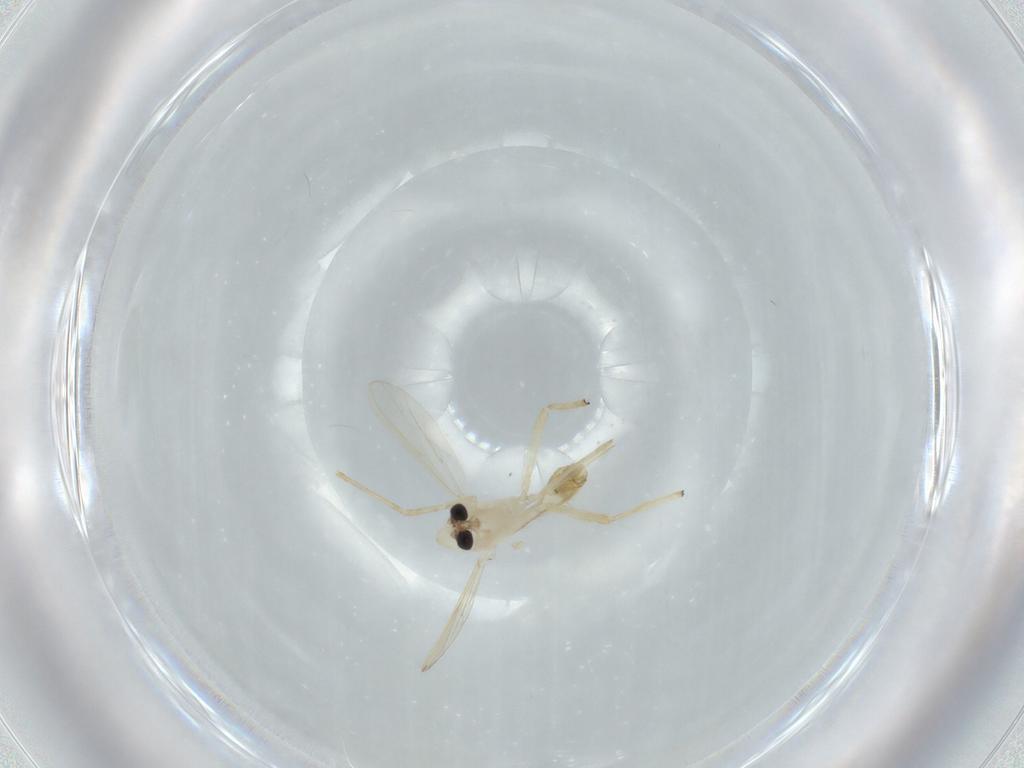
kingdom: Animalia
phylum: Arthropoda
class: Insecta
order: Diptera
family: Chironomidae
